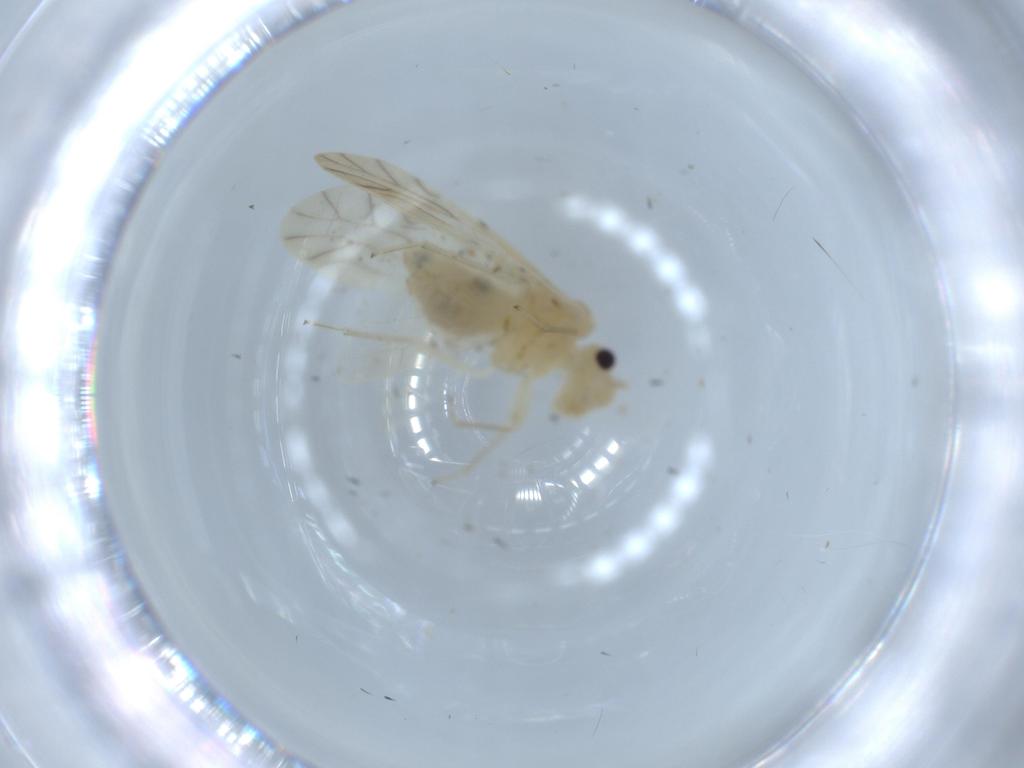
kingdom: Animalia
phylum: Arthropoda
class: Insecta
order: Psocodea
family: Caeciliusidae
